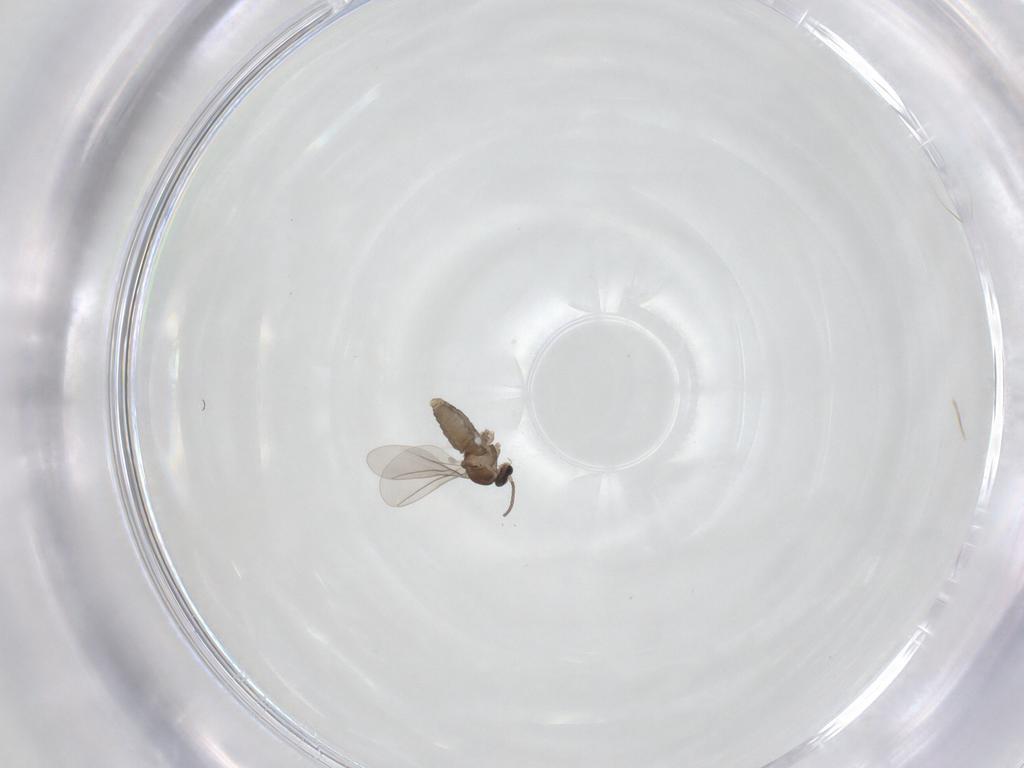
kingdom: Animalia
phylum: Arthropoda
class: Insecta
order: Diptera
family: Cecidomyiidae
